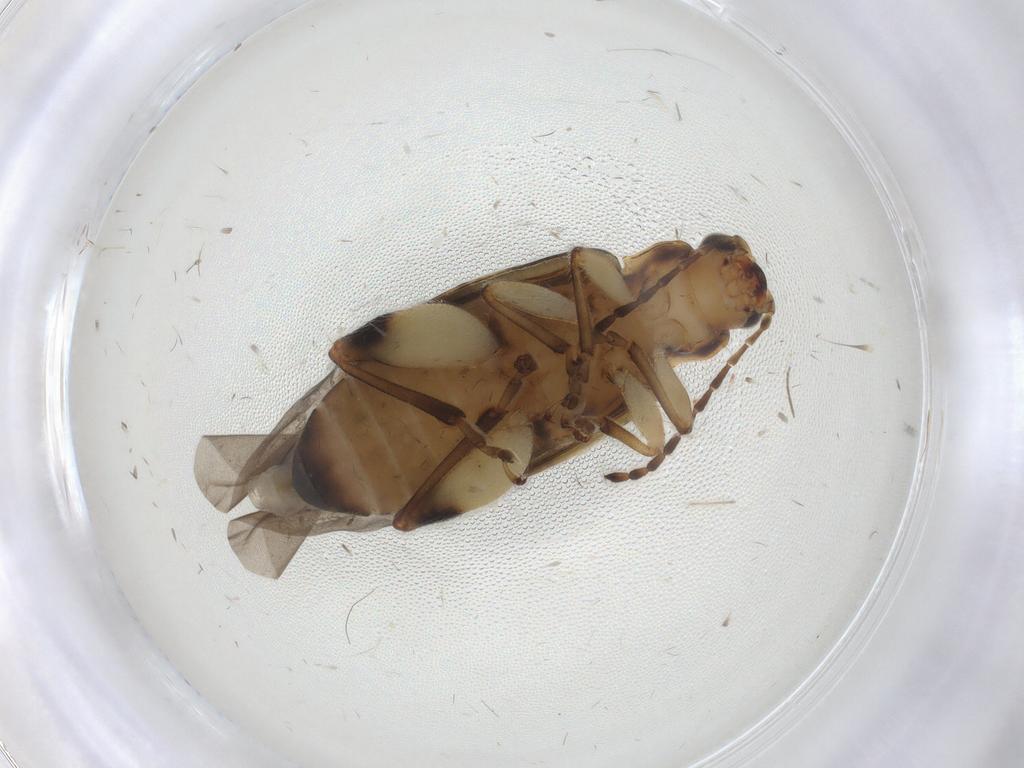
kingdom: Animalia
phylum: Arthropoda
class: Insecta
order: Coleoptera
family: Chrysomelidae
